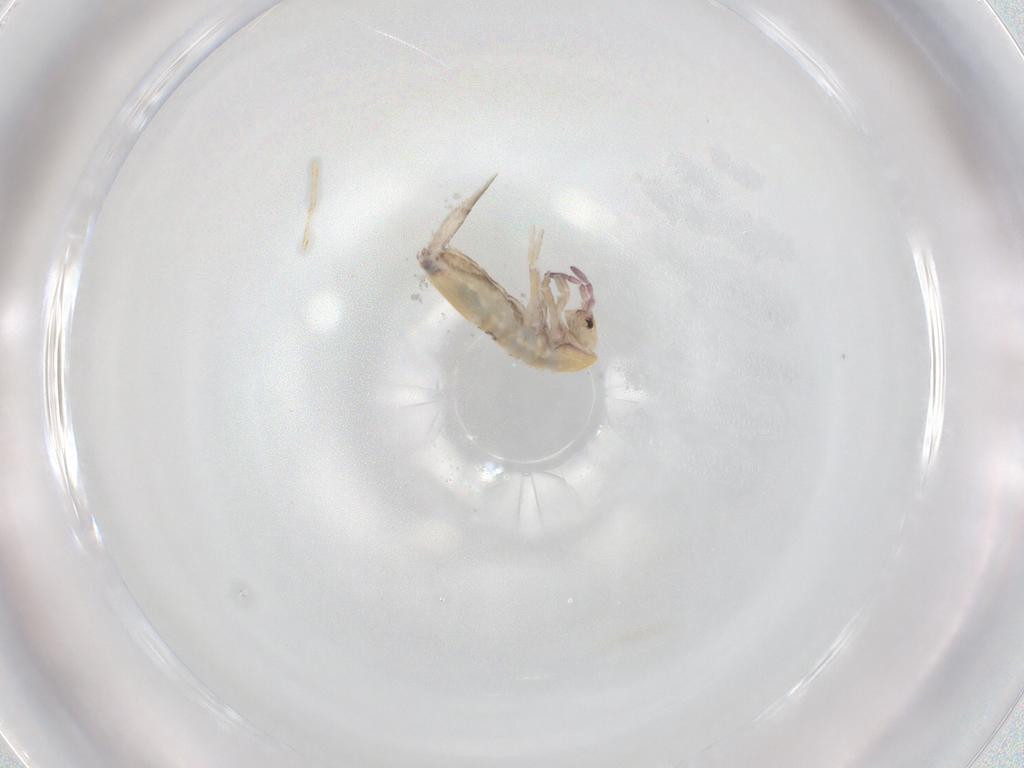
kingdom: Animalia
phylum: Arthropoda
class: Collembola
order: Entomobryomorpha
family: Entomobryidae
